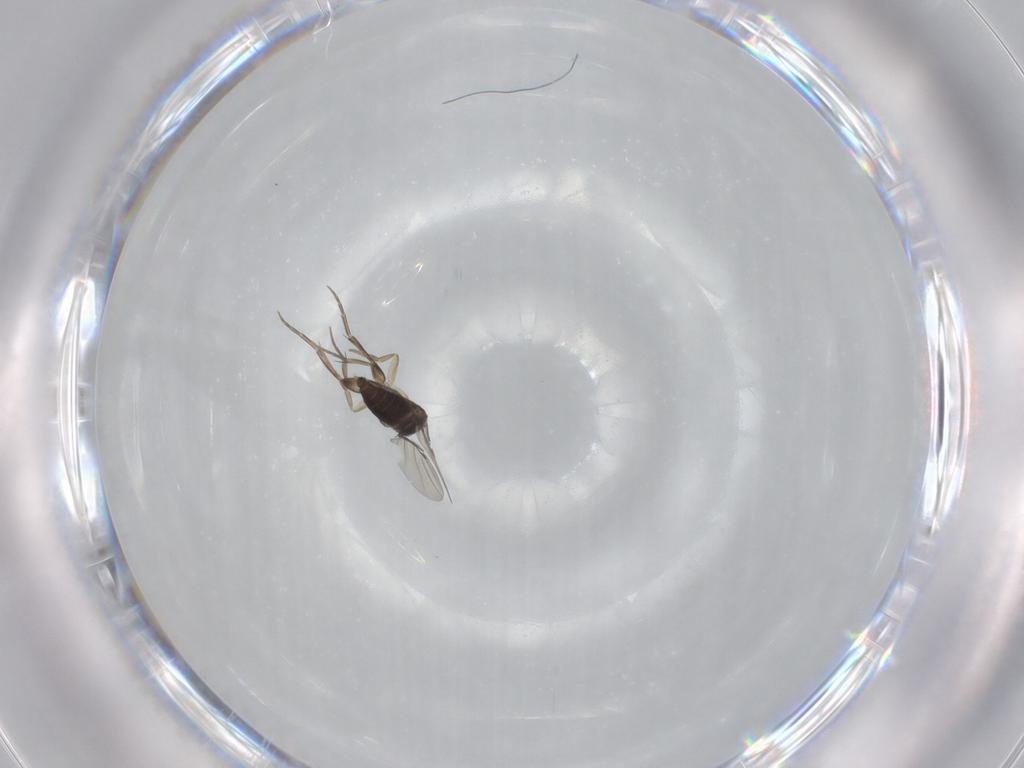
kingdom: Animalia
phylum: Arthropoda
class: Insecta
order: Diptera
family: Phoridae
